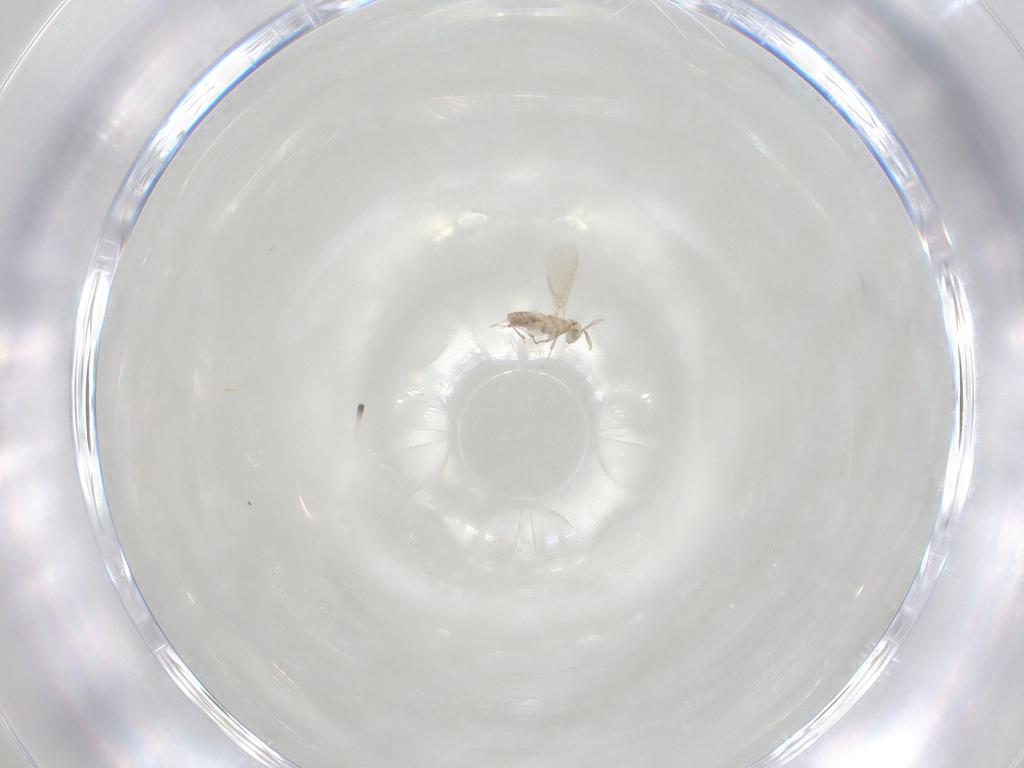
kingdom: Animalia
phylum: Arthropoda
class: Insecta
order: Hymenoptera
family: Aphelinidae
